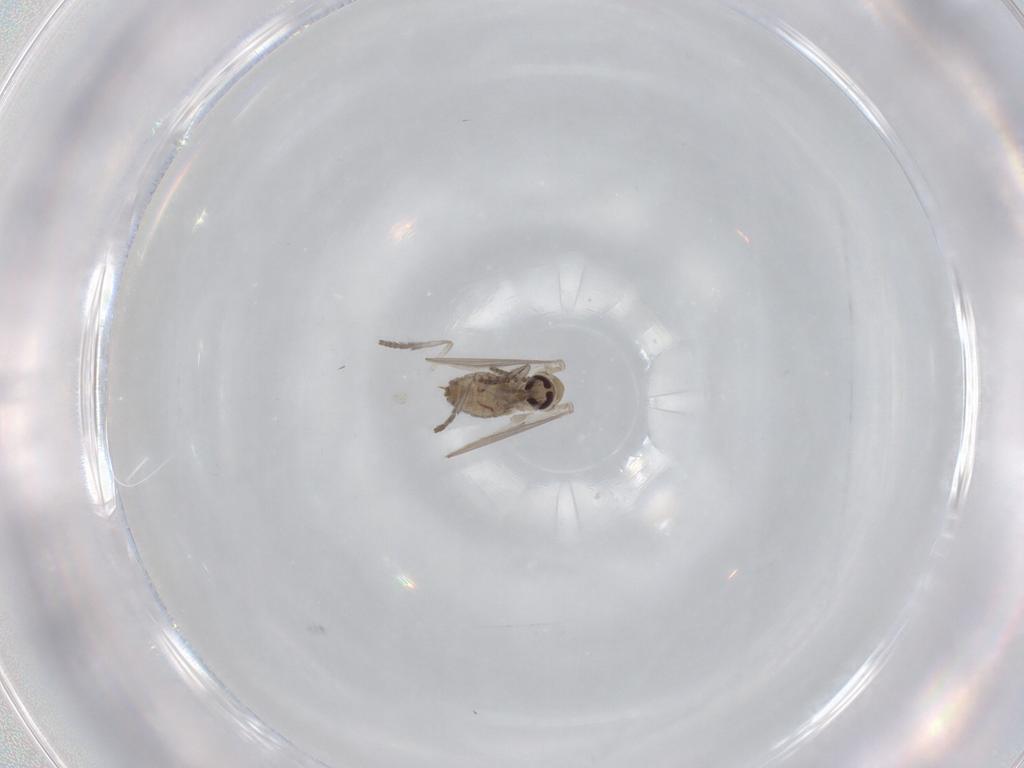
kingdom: Animalia
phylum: Arthropoda
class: Insecta
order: Diptera
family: Psychodidae
